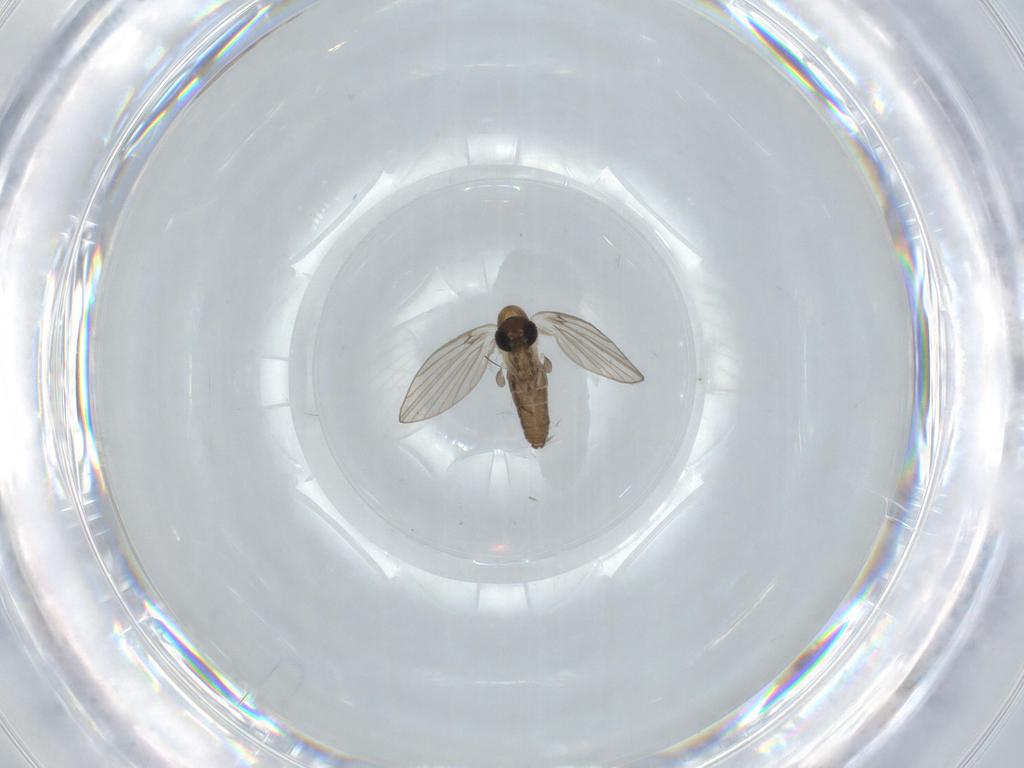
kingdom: Animalia
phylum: Arthropoda
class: Insecta
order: Diptera
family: Psychodidae
